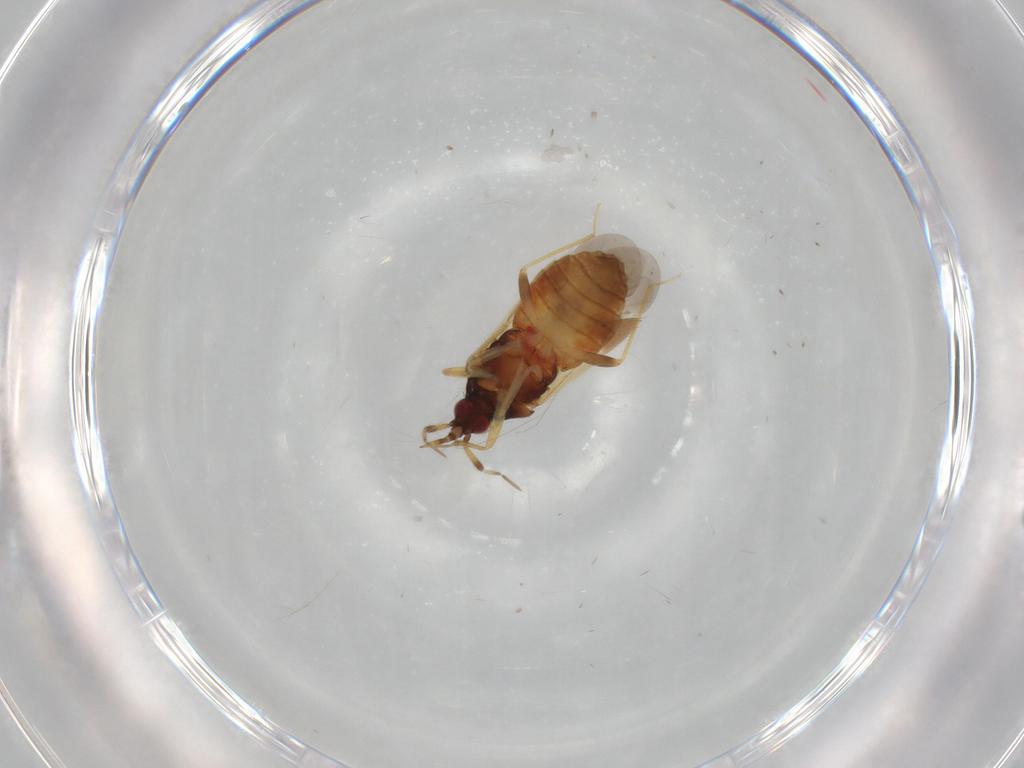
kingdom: Animalia
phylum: Arthropoda
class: Insecta
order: Hemiptera
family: Anthocoridae
